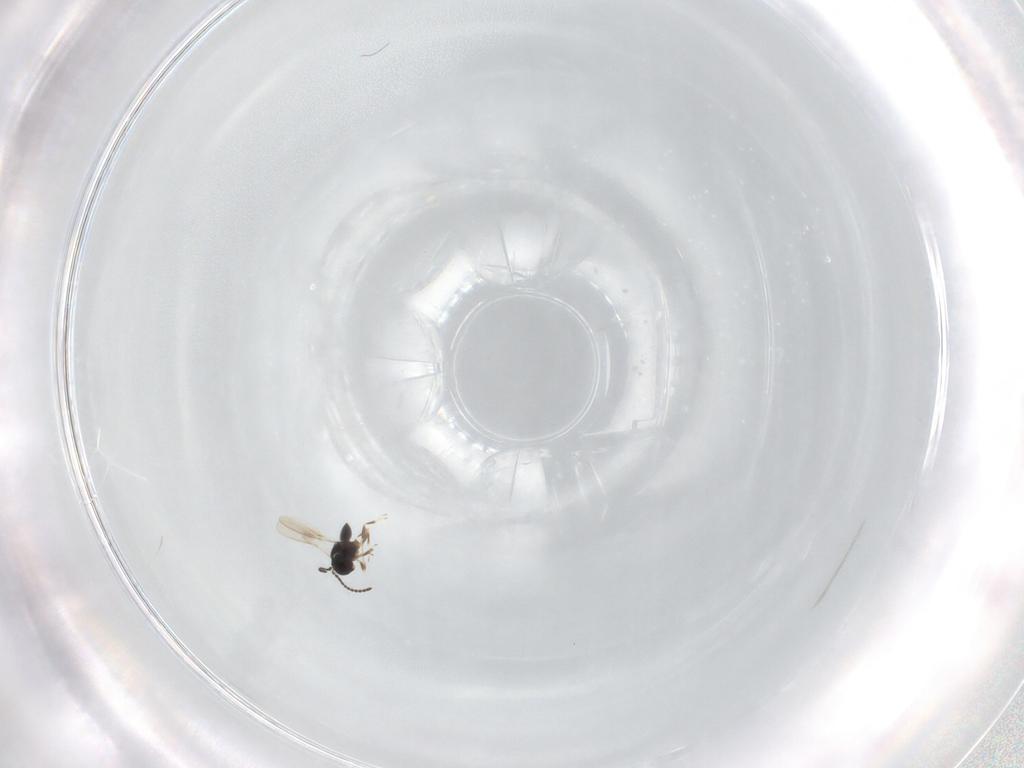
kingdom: Animalia
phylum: Arthropoda
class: Insecta
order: Hymenoptera
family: Scelionidae
